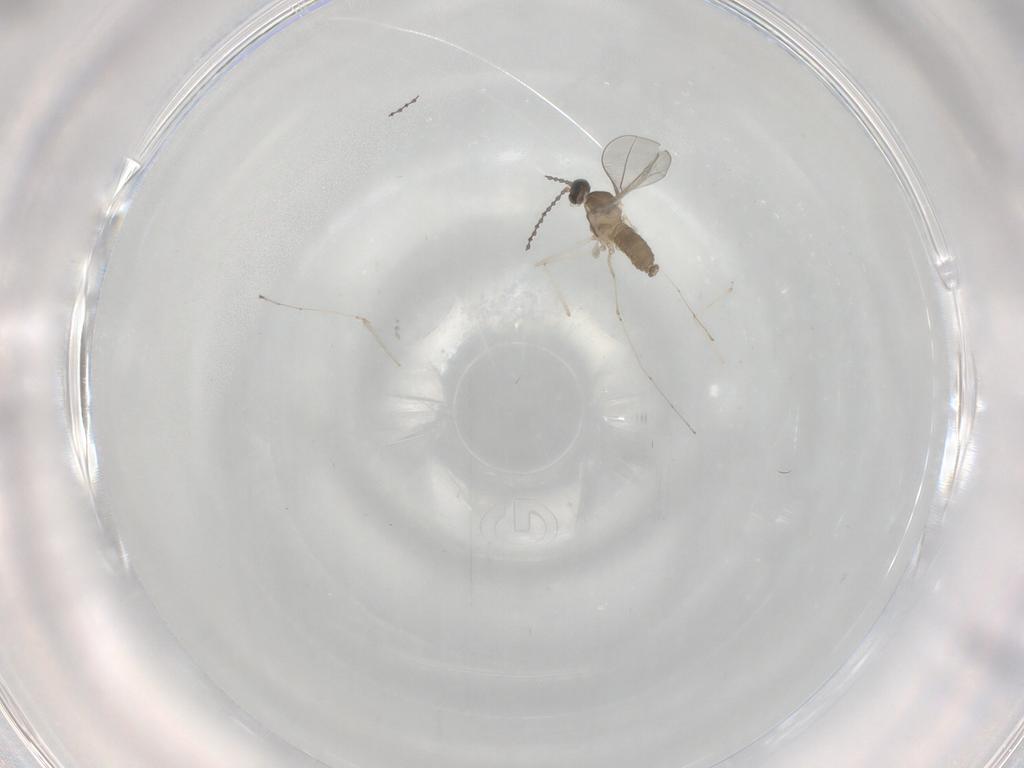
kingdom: Animalia
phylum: Arthropoda
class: Insecta
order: Diptera
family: Cecidomyiidae
